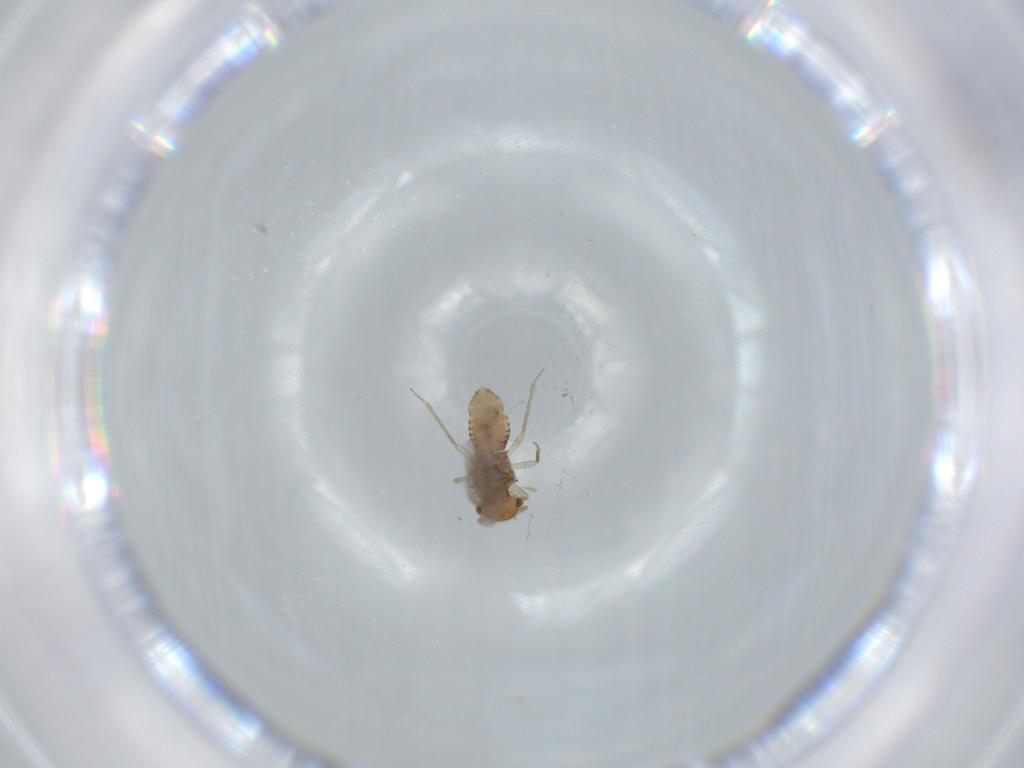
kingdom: Animalia
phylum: Arthropoda
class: Insecta
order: Psocodea
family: Ectopsocidae
